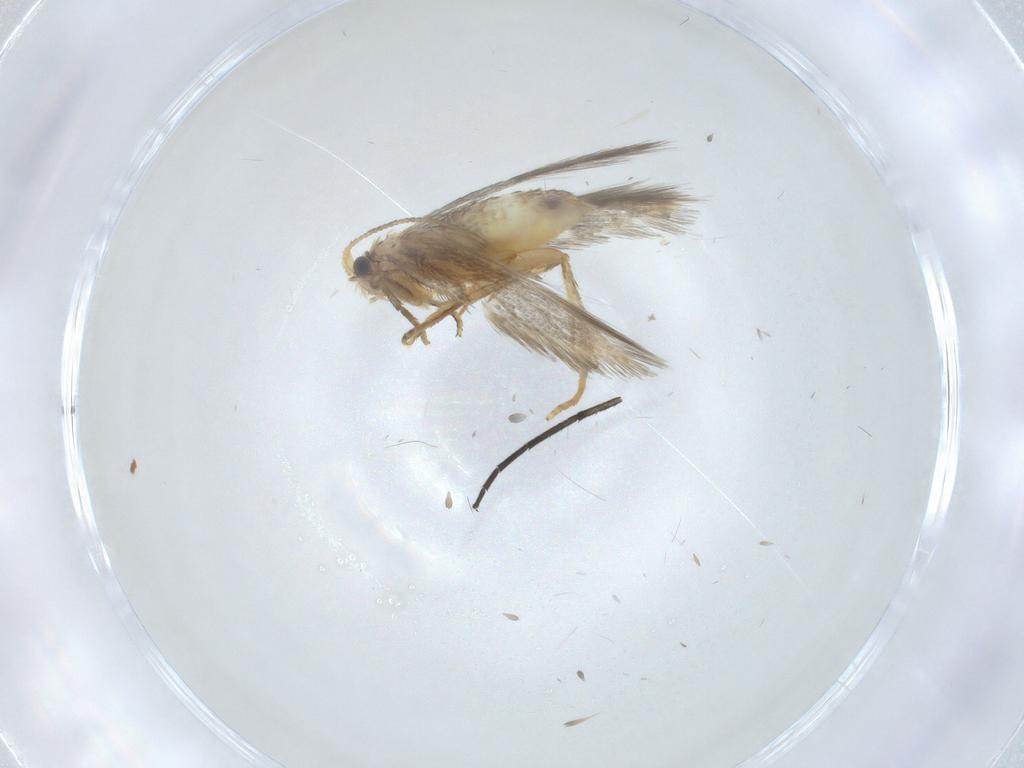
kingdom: Animalia
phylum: Arthropoda
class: Insecta
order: Lepidoptera
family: Nepticulidae
